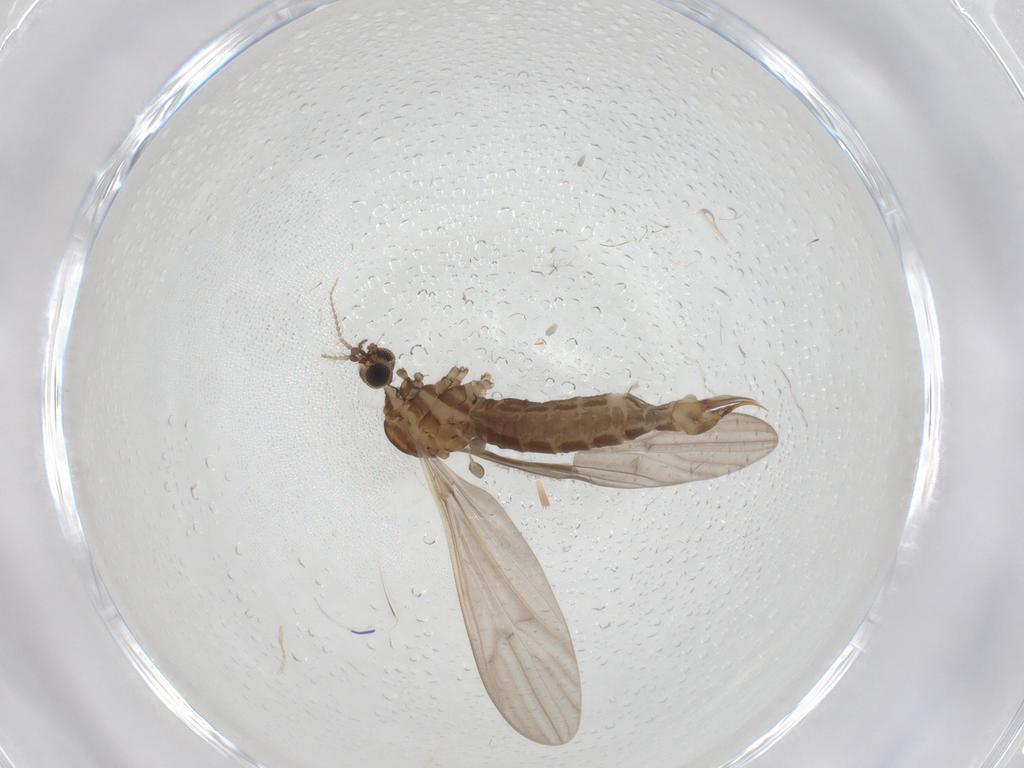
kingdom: Animalia
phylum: Arthropoda
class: Insecta
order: Diptera
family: Limoniidae
